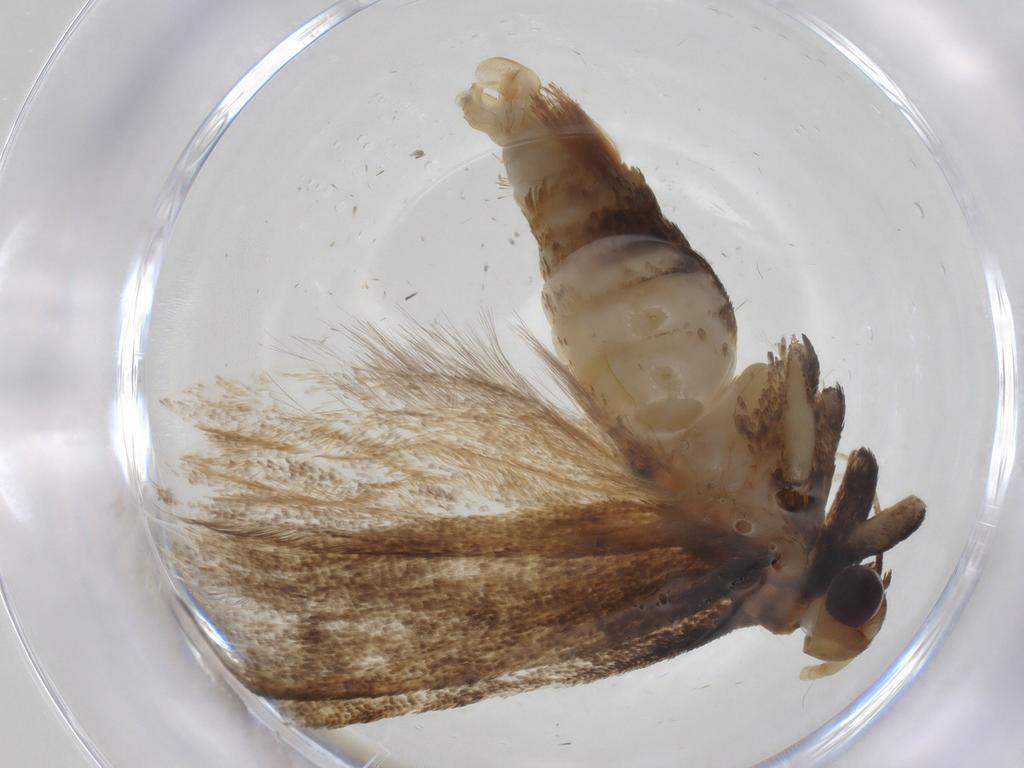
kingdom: Animalia
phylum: Arthropoda
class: Insecta
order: Lepidoptera
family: Lecithoceridae
